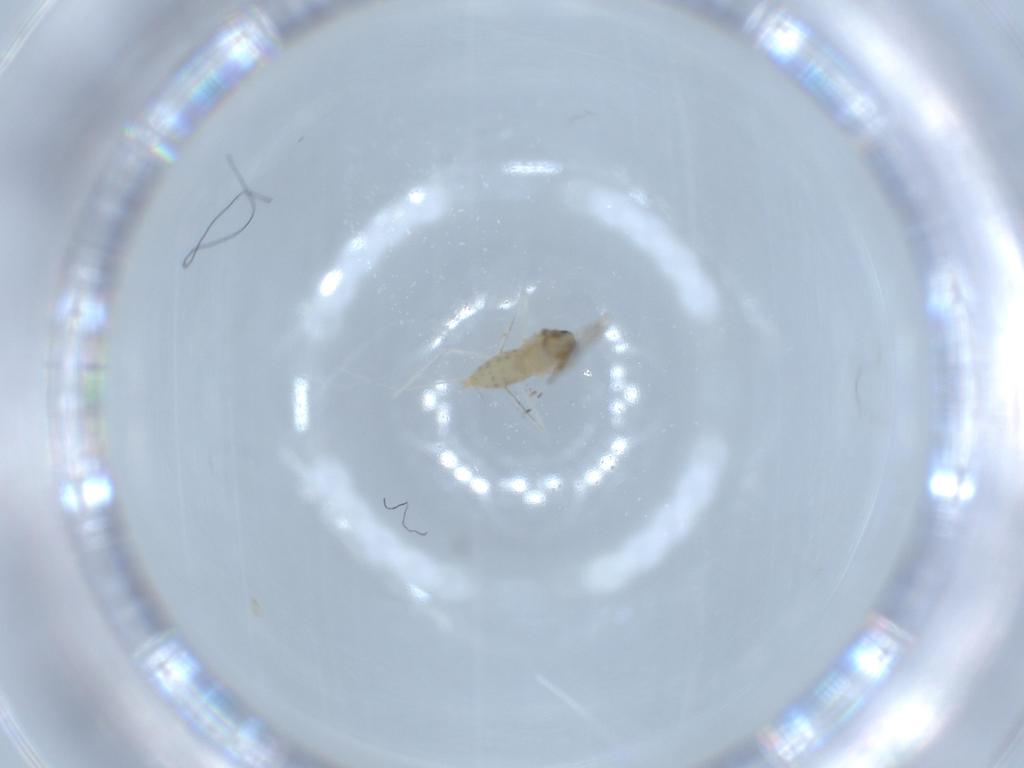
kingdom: Animalia
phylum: Arthropoda
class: Insecta
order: Diptera
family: Cecidomyiidae
